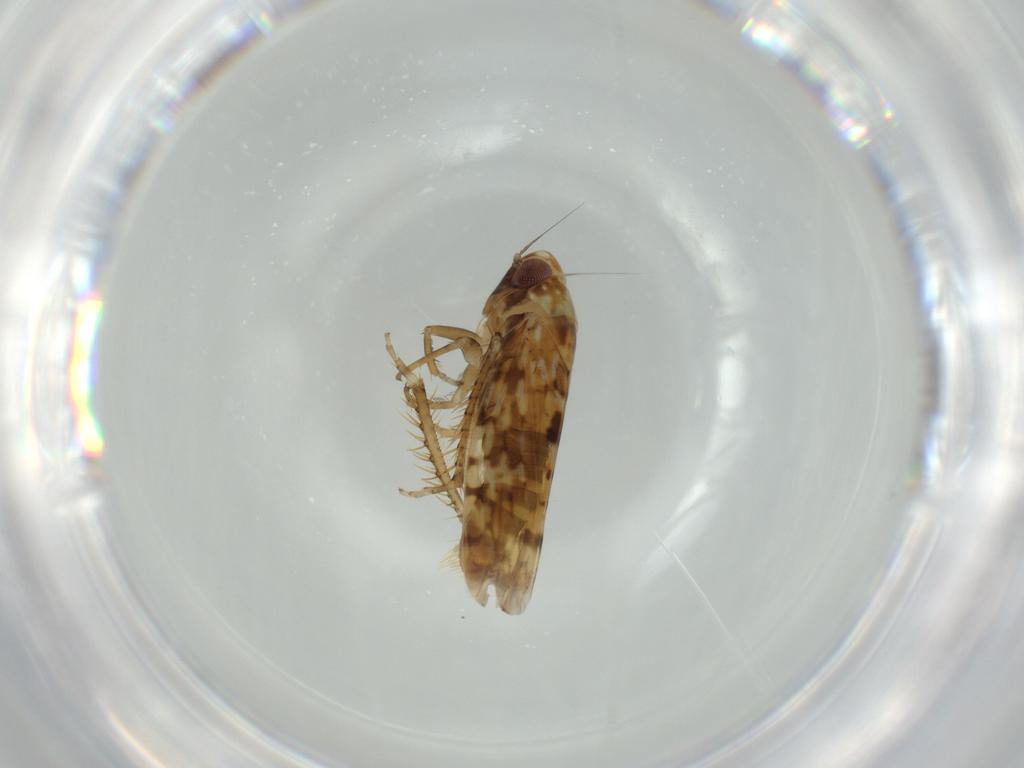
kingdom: Animalia
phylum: Arthropoda
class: Insecta
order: Hemiptera
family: Cicadellidae
